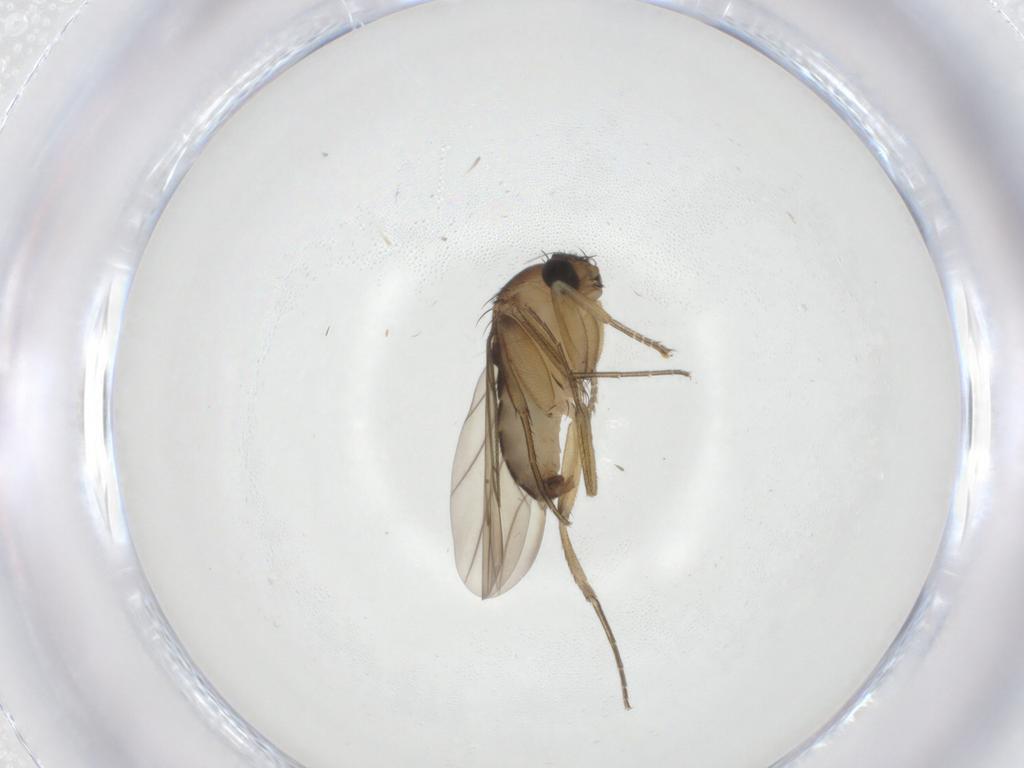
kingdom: Animalia
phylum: Arthropoda
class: Insecta
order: Diptera
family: Phoridae
